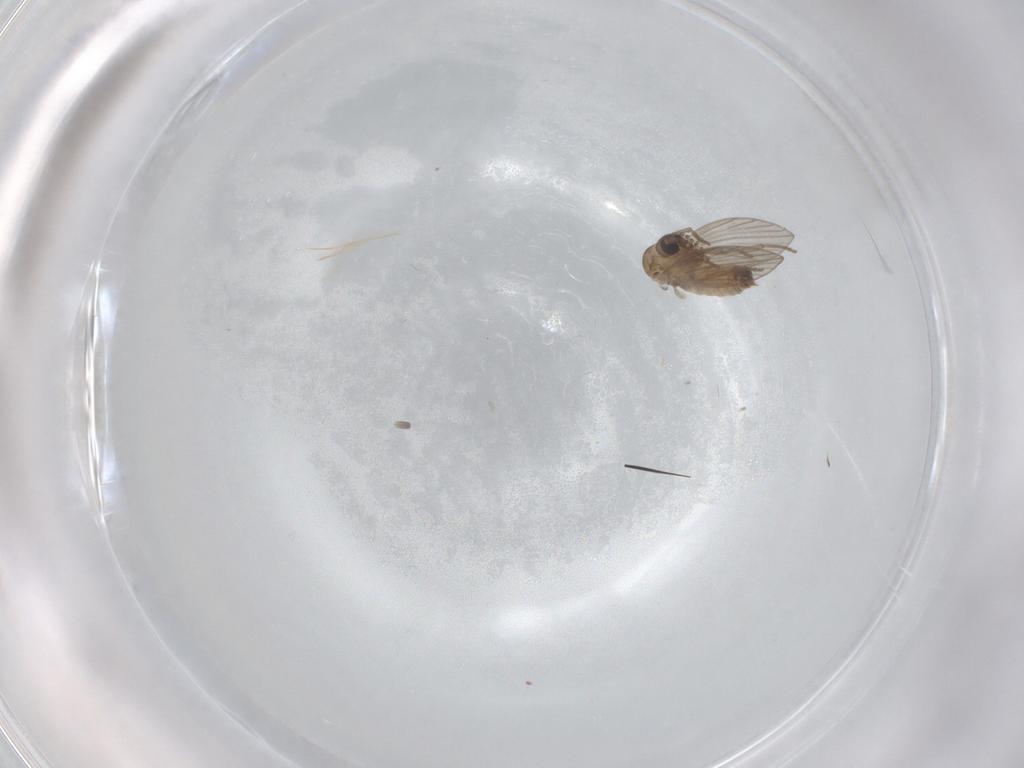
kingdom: Animalia
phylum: Arthropoda
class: Insecta
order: Diptera
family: Psychodidae
